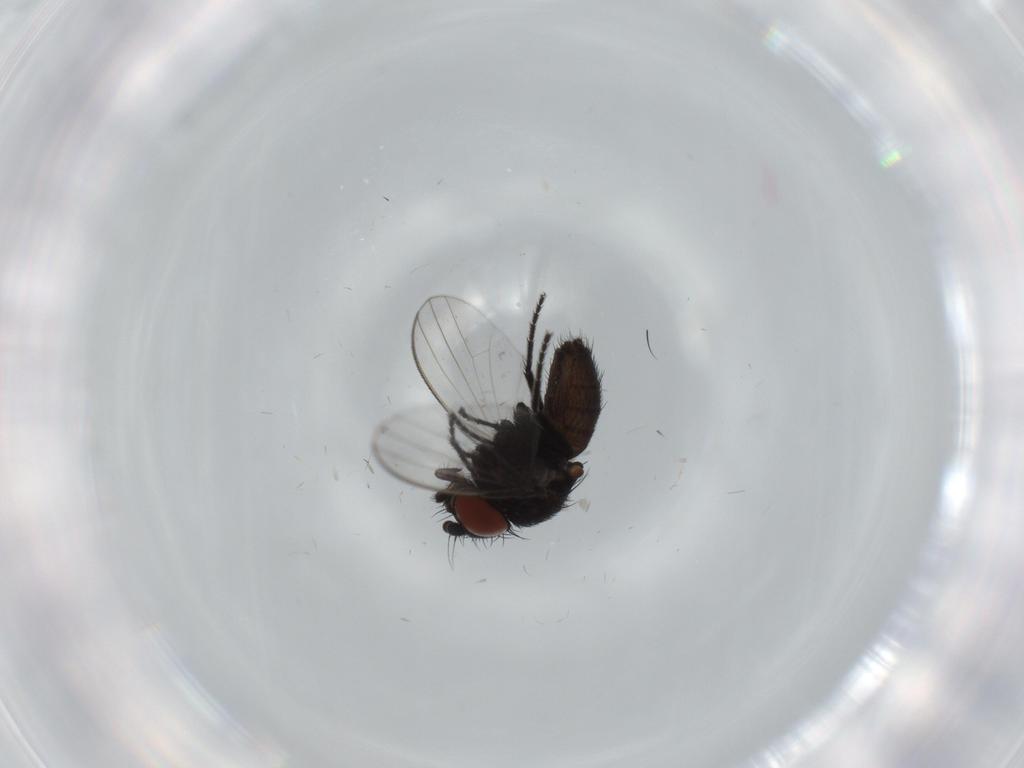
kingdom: Animalia
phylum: Arthropoda
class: Insecta
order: Diptera
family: Milichiidae
